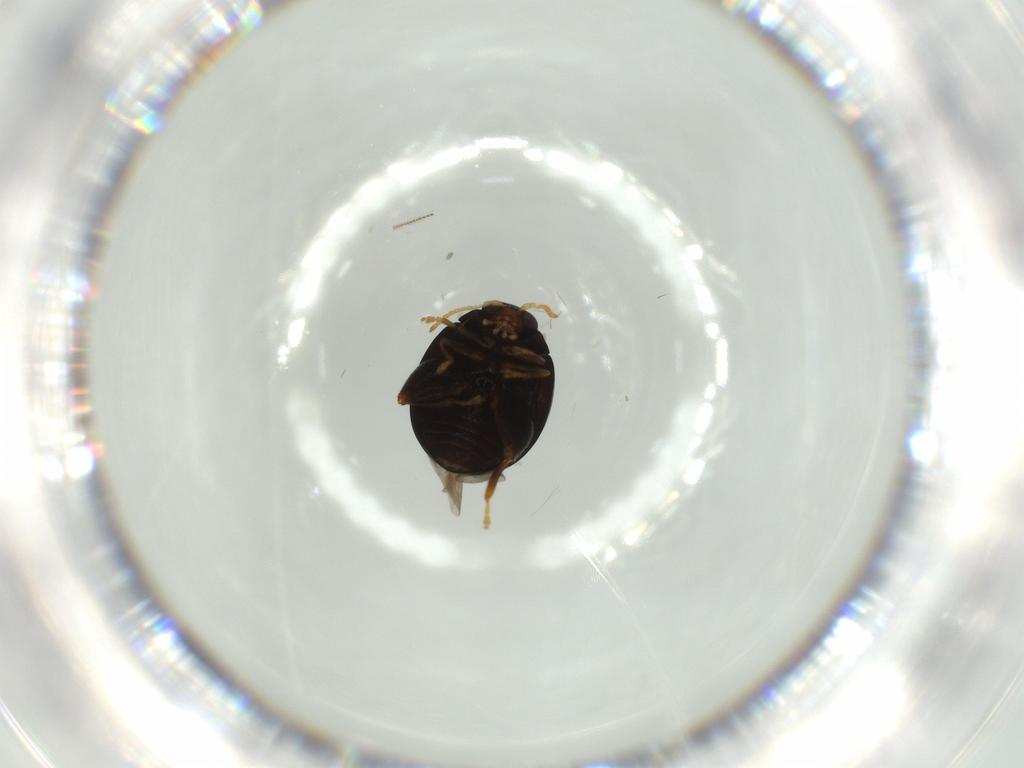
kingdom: Animalia
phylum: Arthropoda
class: Insecta
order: Coleoptera
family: Chrysomelidae
